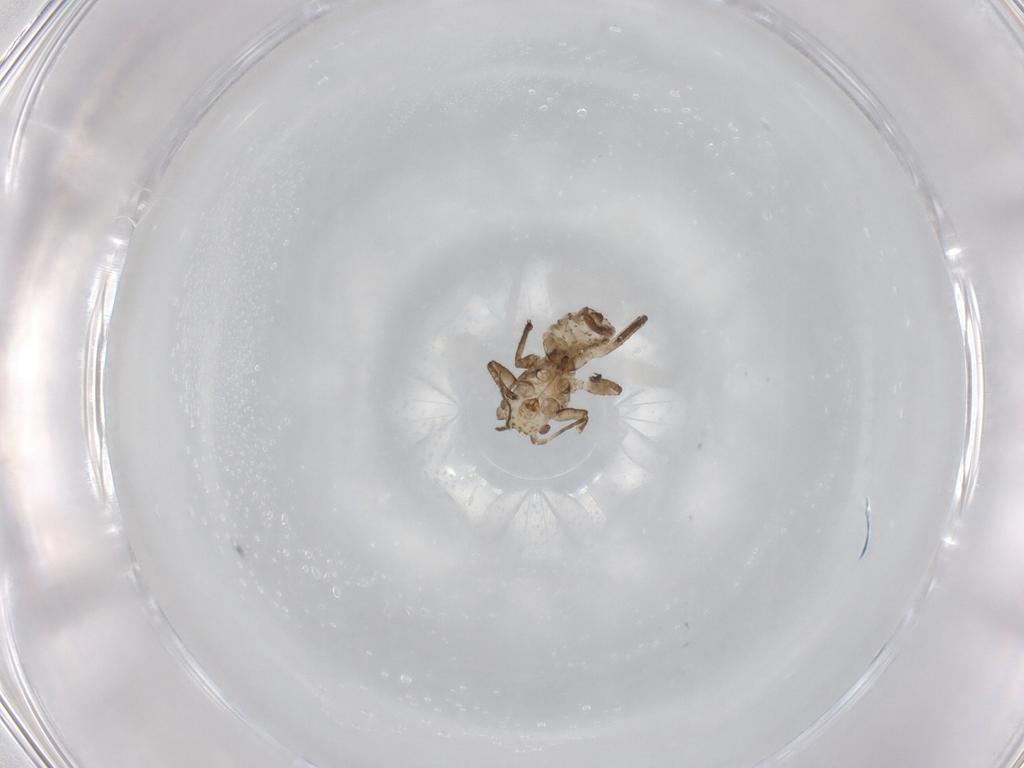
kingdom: Animalia
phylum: Arthropoda
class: Insecta
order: Hemiptera
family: Aphididae
